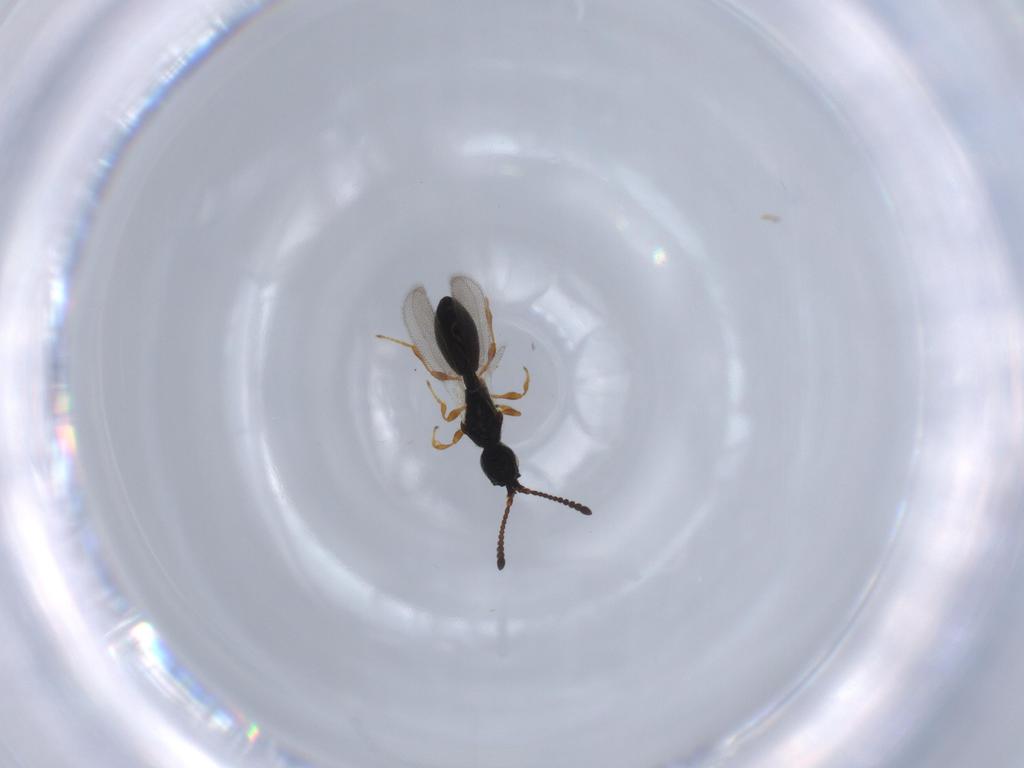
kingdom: Animalia
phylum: Arthropoda
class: Insecta
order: Hymenoptera
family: Diapriidae
